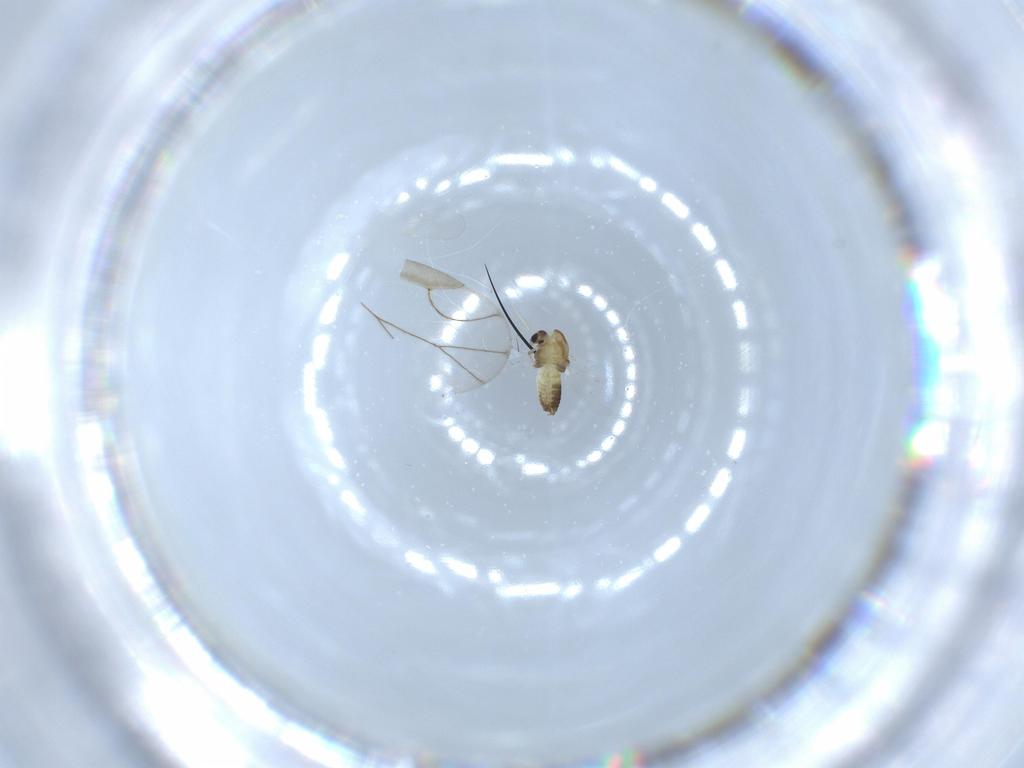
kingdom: Animalia
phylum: Arthropoda
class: Insecta
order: Diptera
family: Chironomidae
